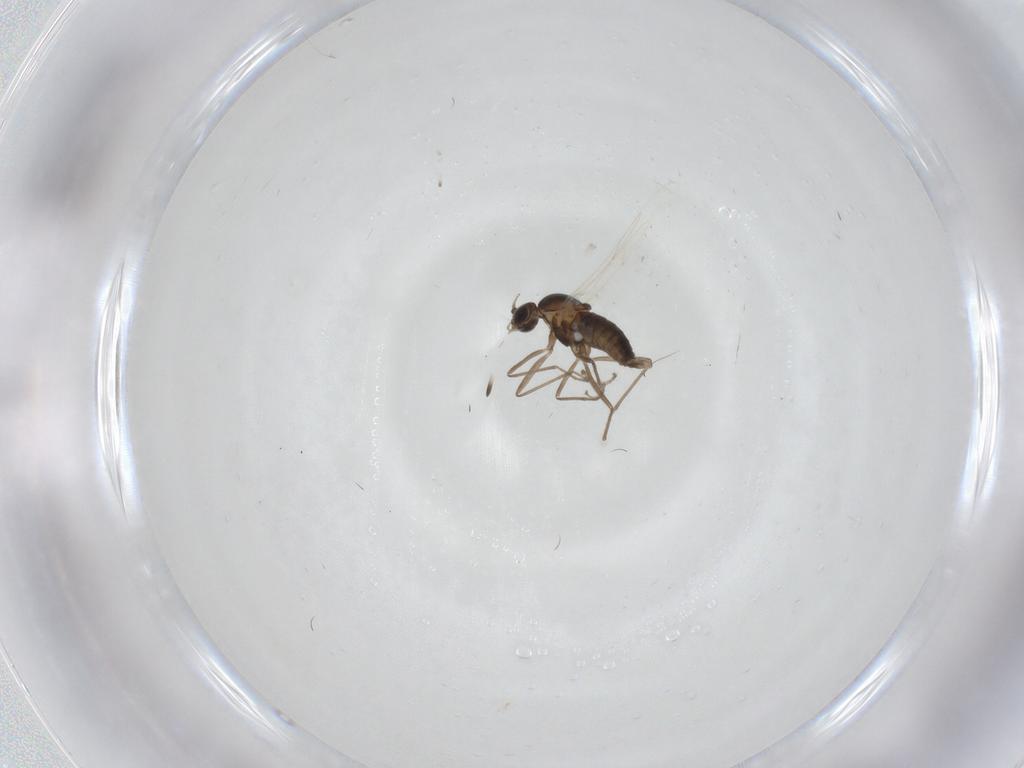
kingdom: Animalia
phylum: Arthropoda
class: Insecta
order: Diptera
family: Cecidomyiidae
